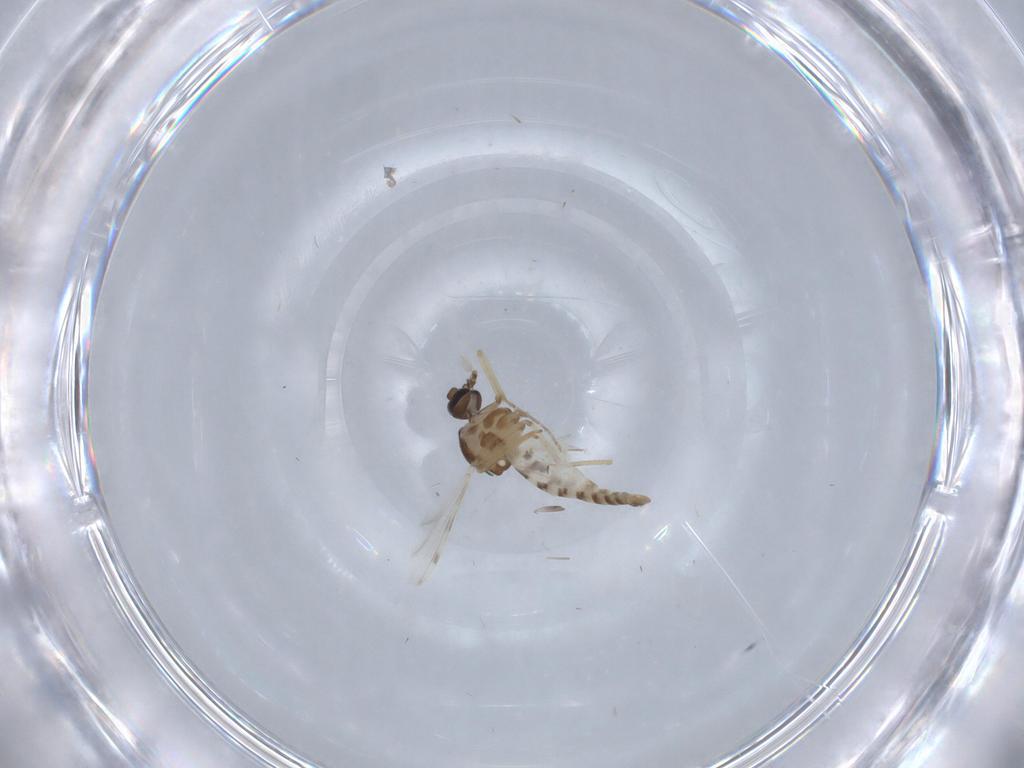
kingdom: Animalia
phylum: Arthropoda
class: Insecta
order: Diptera
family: Ceratopogonidae
